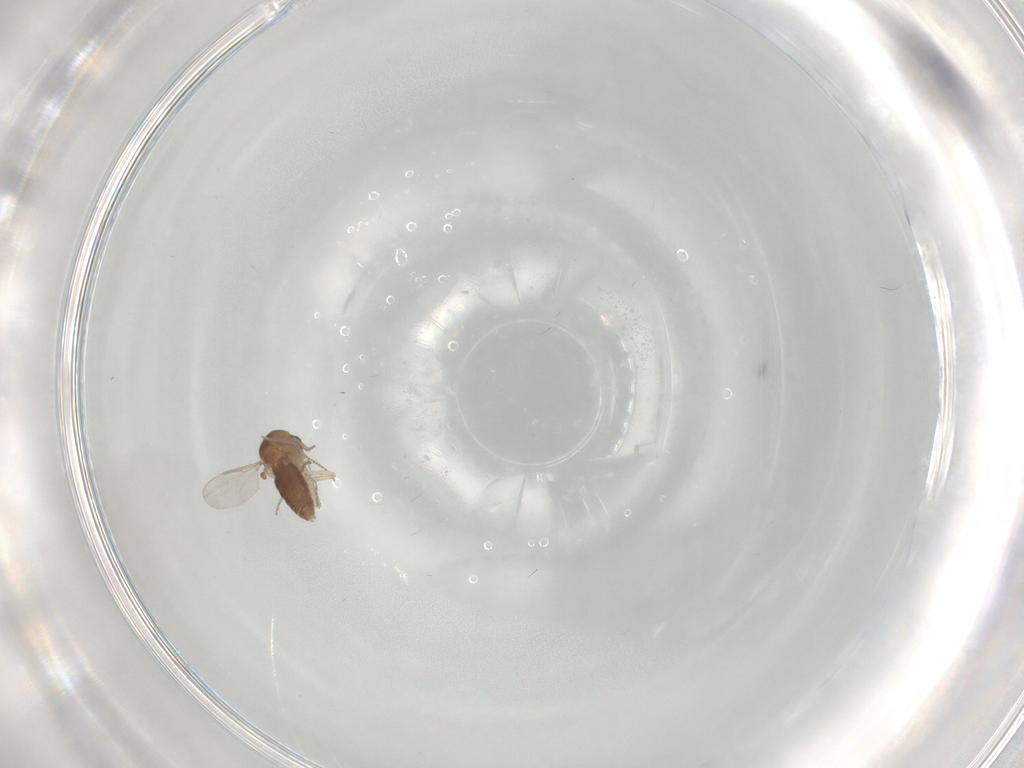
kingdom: Animalia
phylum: Arthropoda
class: Insecta
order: Diptera
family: Ceratopogonidae
